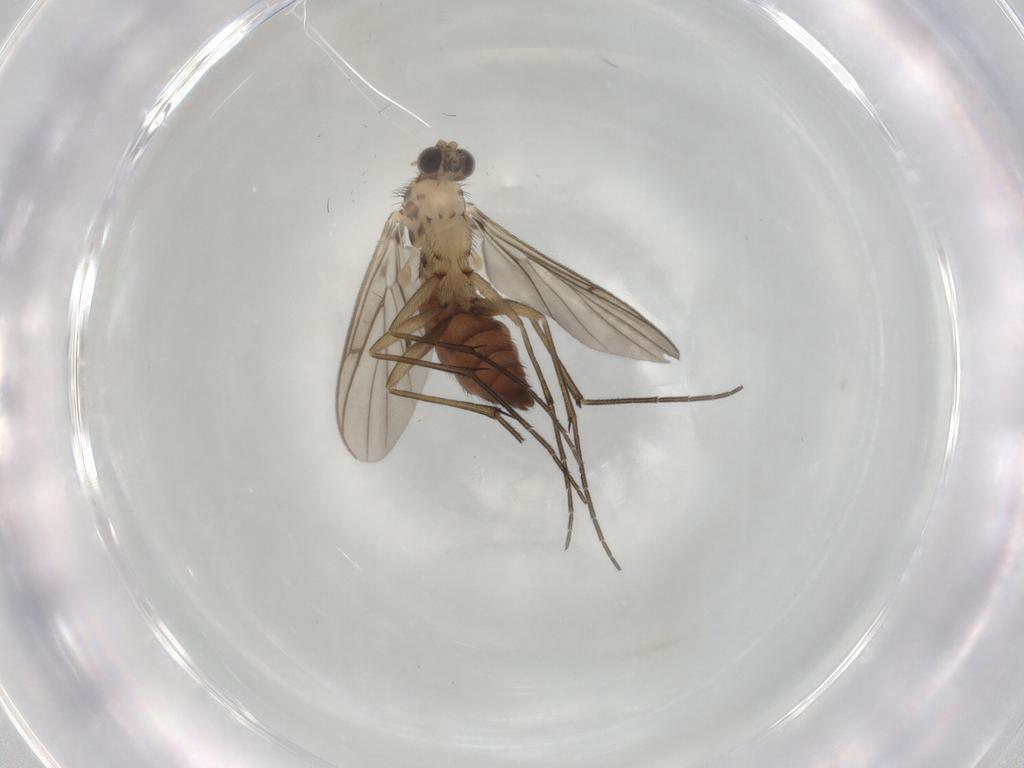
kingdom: Animalia
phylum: Arthropoda
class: Insecta
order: Diptera
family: Keroplatidae
